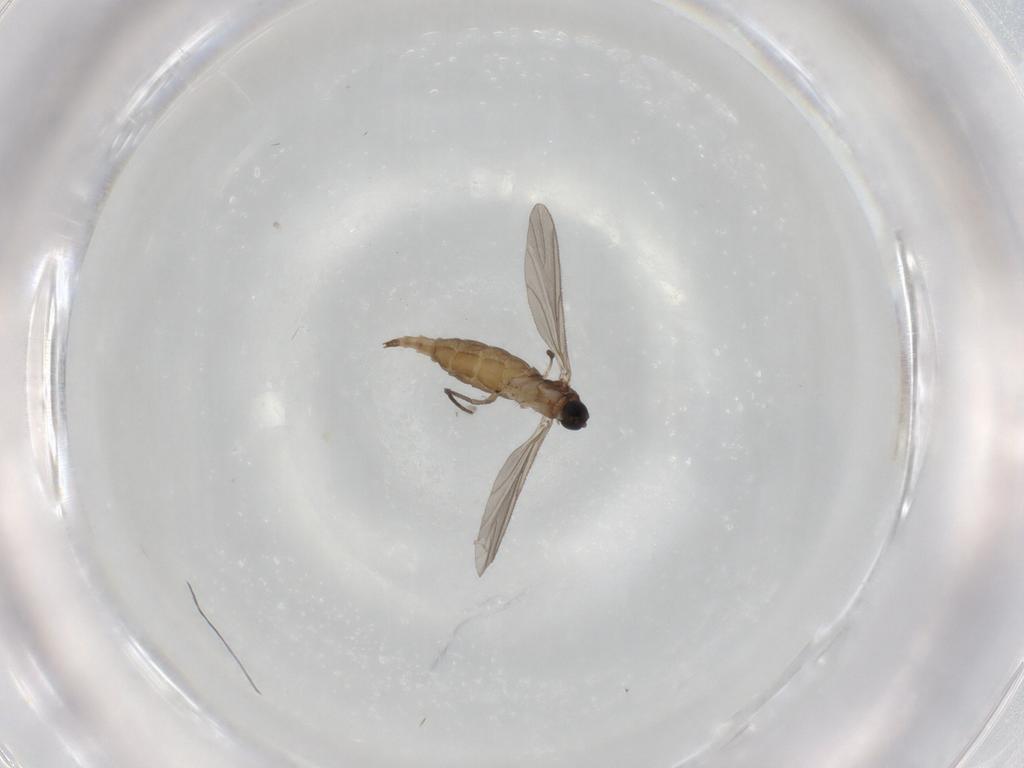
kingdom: Animalia
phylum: Arthropoda
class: Insecta
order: Diptera
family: Sciaridae
